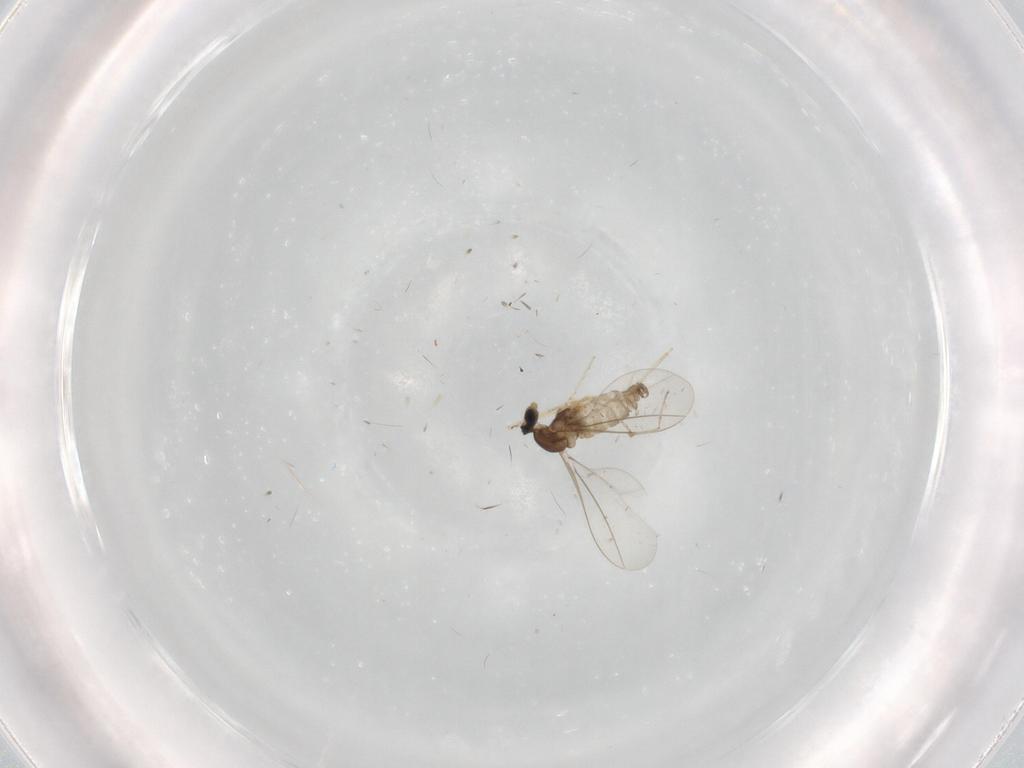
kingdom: Animalia
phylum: Arthropoda
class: Insecta
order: Diptera
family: Cecidomyiidae
